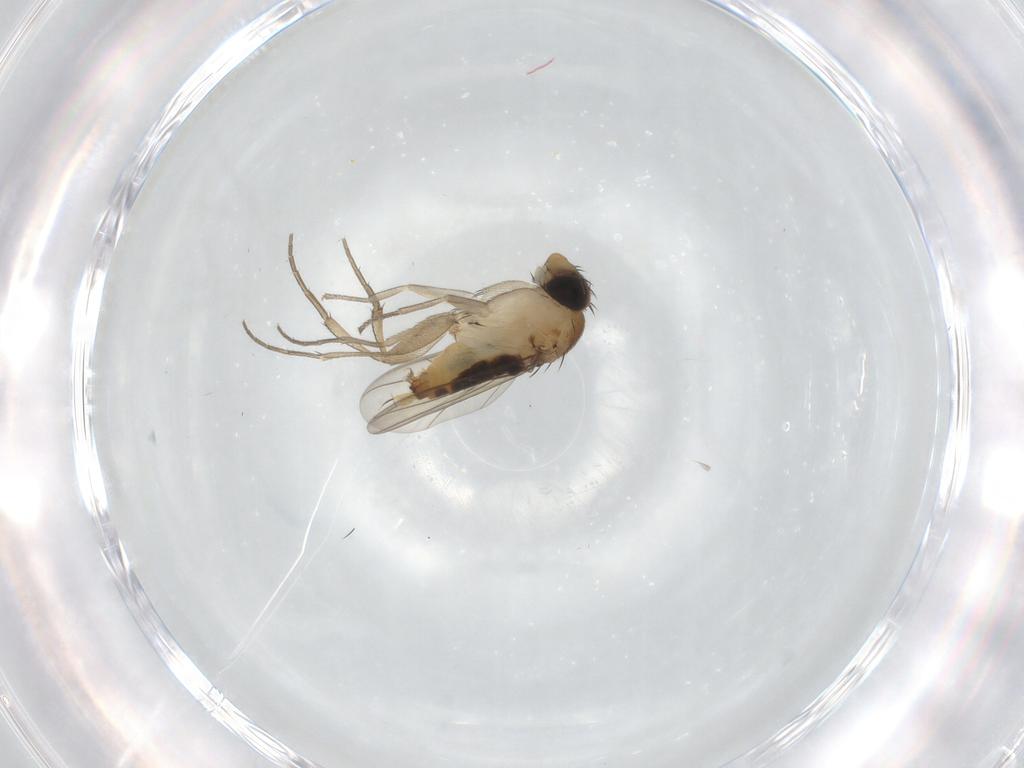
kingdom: Animalia
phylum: Arthropoda
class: Insecta
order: Diptera
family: Phoridae
